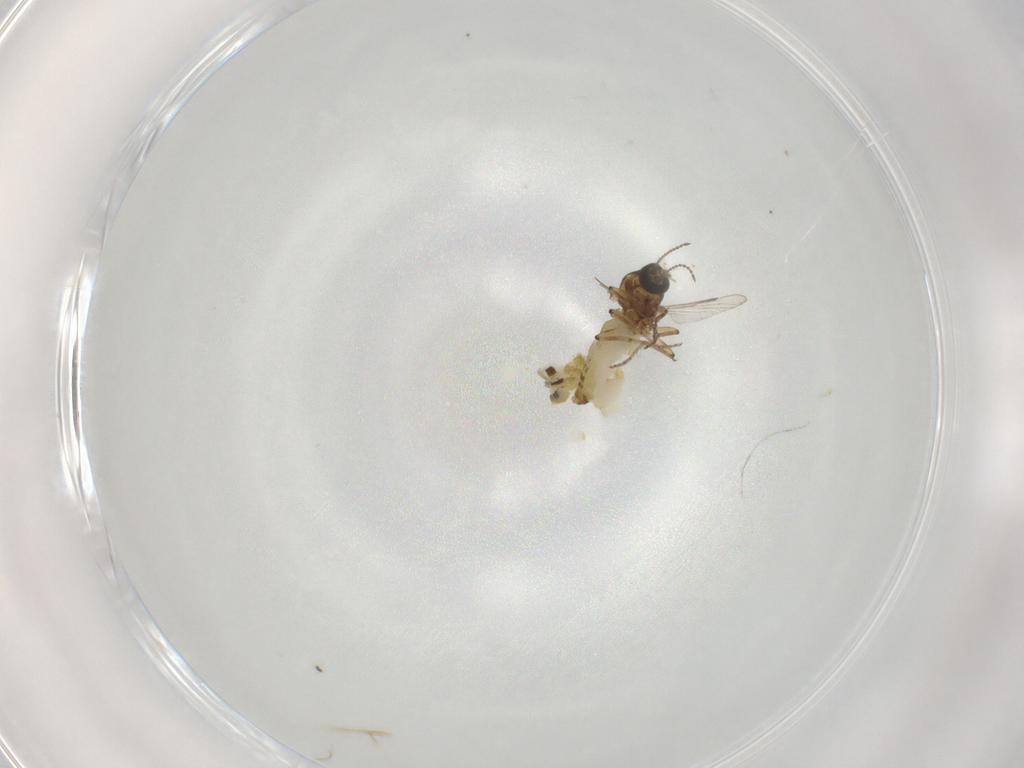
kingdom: Animalia
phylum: Arthropoda
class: Insecta
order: Diptera
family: Ceratopogonidae
